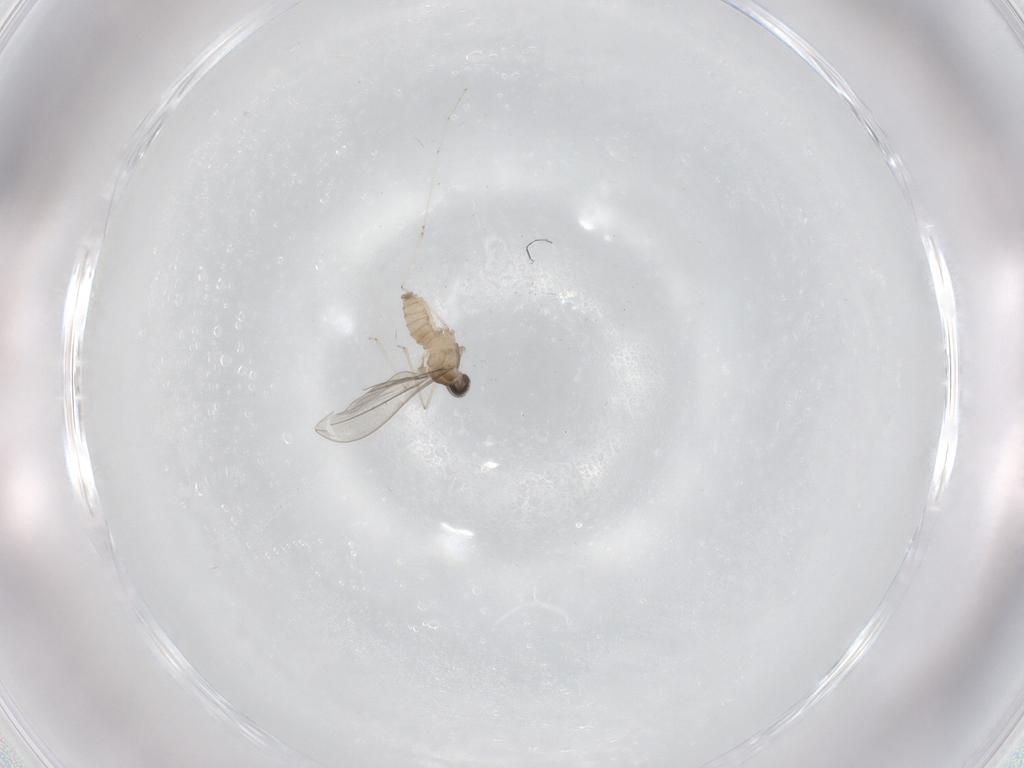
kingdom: Animalia
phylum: Arthropoda
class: Insecta
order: Diptera
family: Cecidomyiidae
